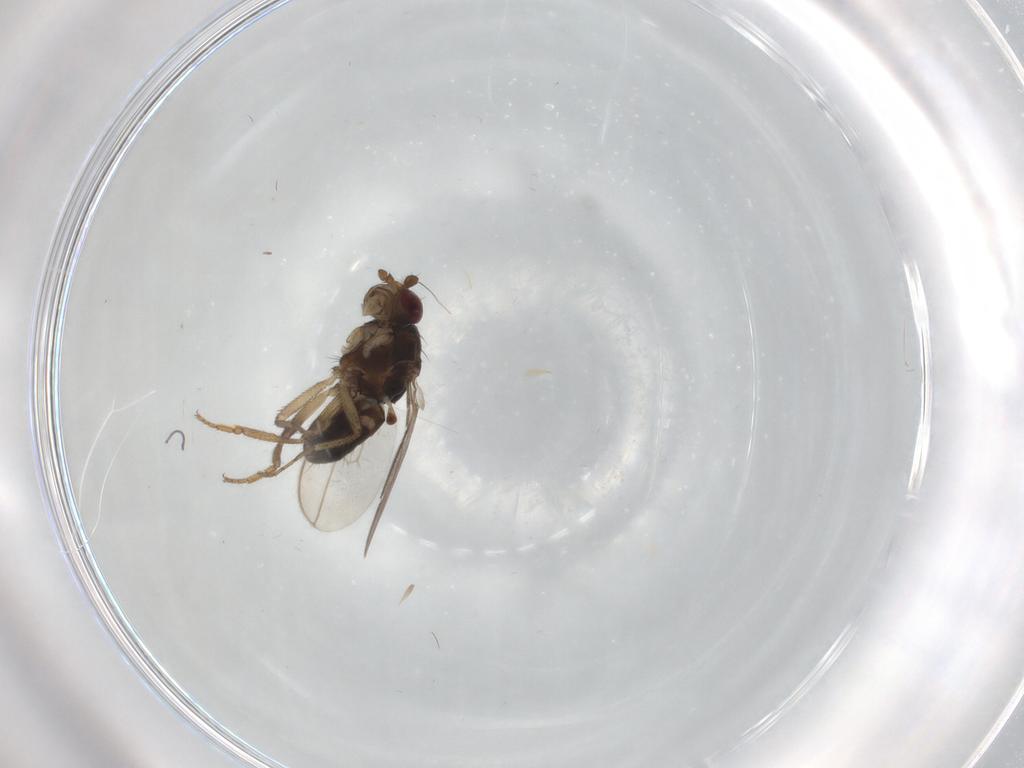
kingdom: Animalia
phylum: Arthropoda
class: Insecta
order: Diptera
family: Sphaeroceridae
